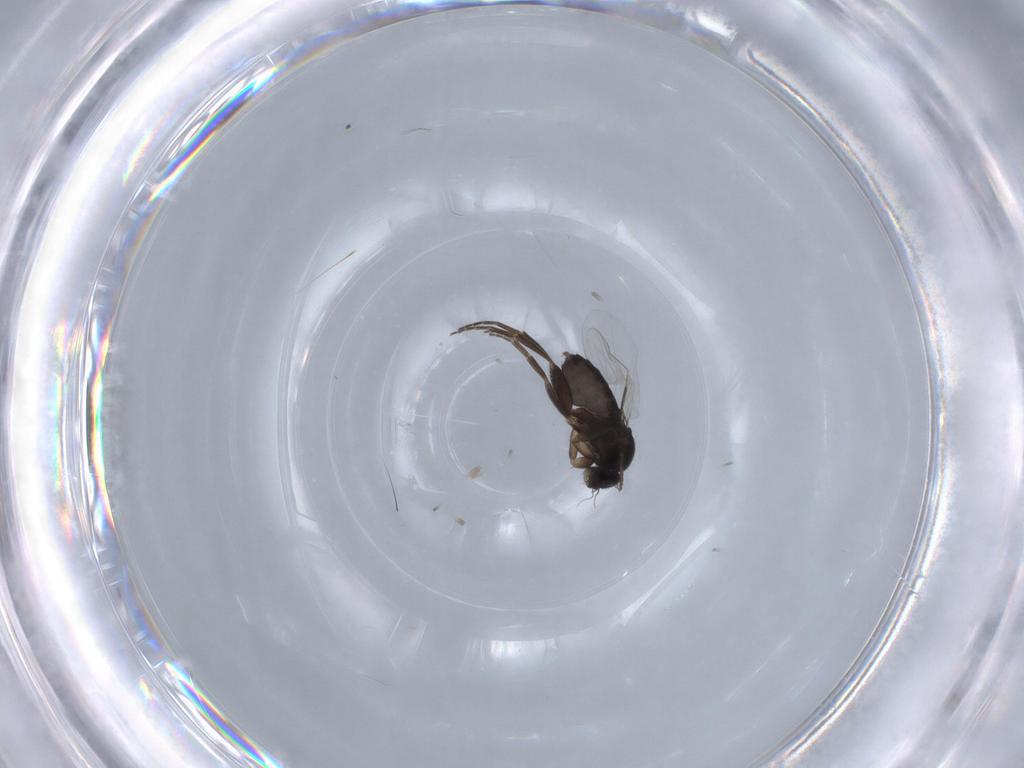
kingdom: Animalia
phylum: Arthropoda
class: Insecta
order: Diptera
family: Phoridae
